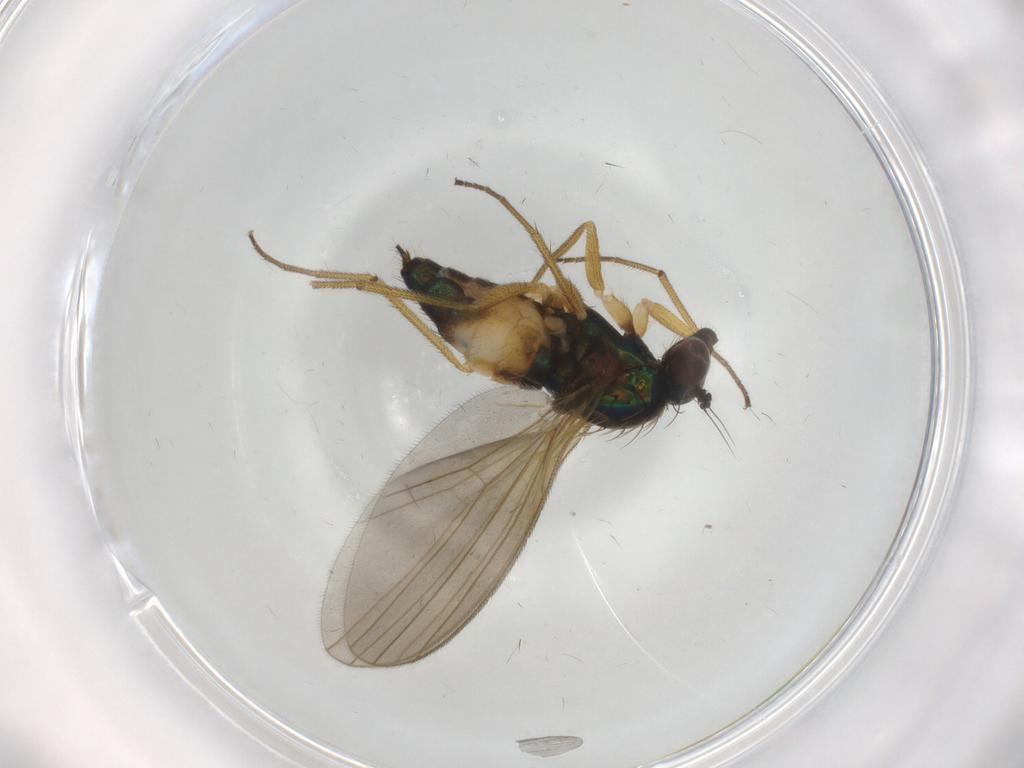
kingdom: Animalia
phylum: Arthropoda
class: Insecta
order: Diptera
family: Dolichopodidae
